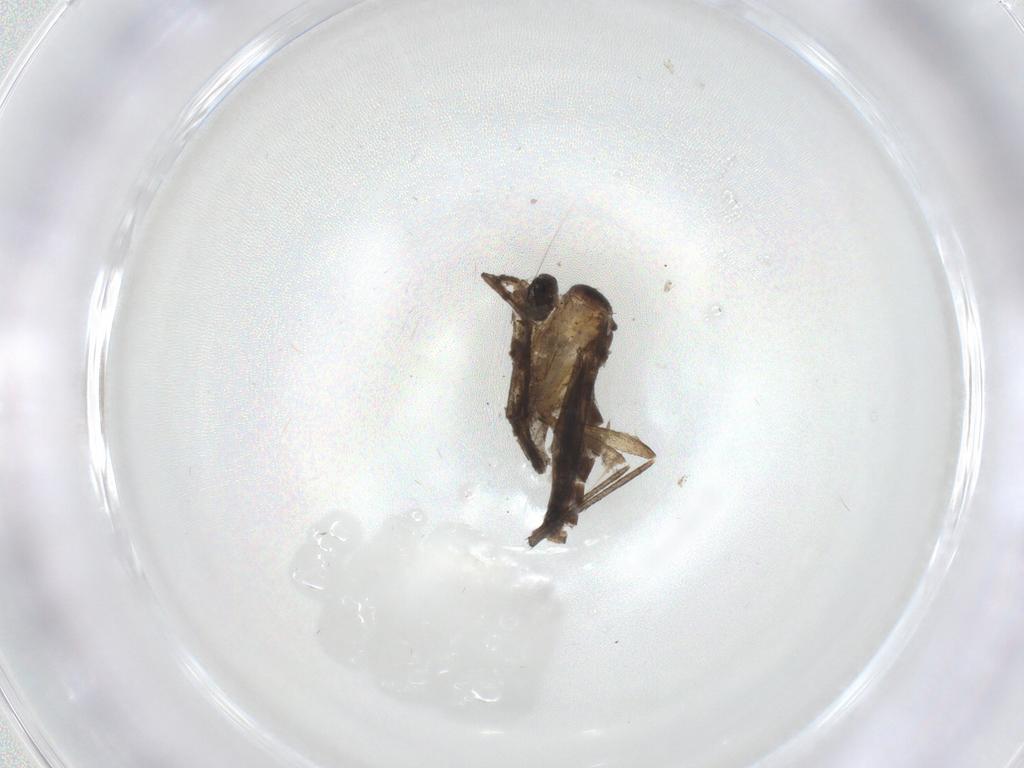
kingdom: Animalia
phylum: Arthropoda
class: Insecta
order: Diptera
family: Sciaridae
